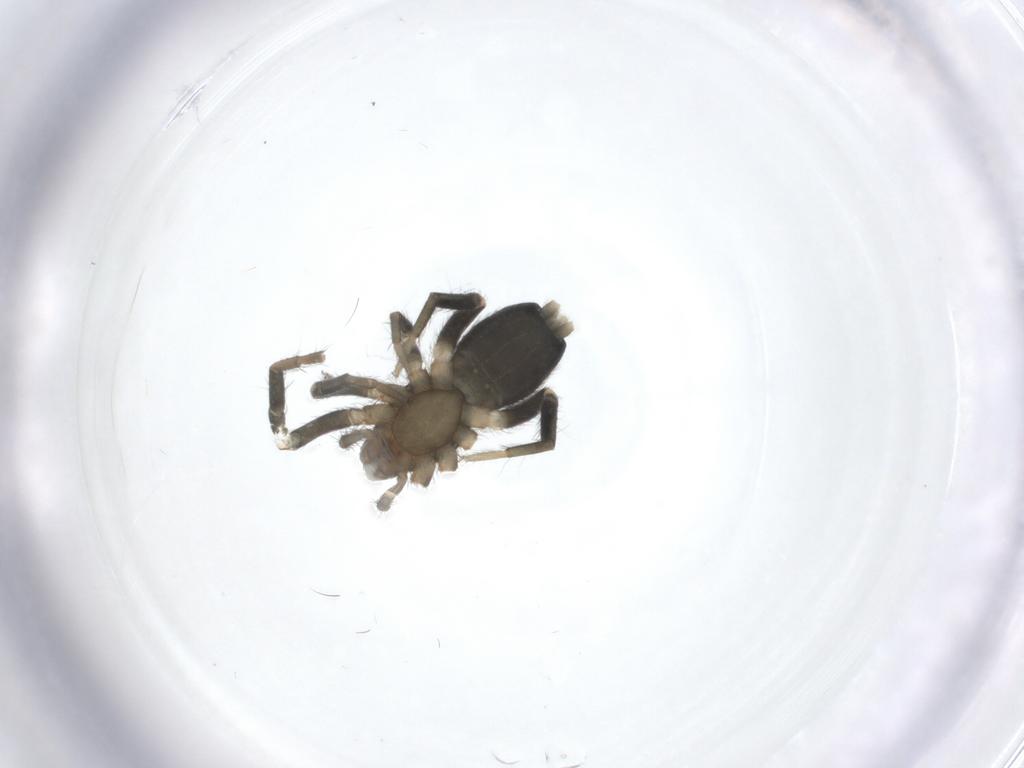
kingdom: Animalia
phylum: Arthropoda
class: Arachnida
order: Araneae
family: Gnaphosidae
